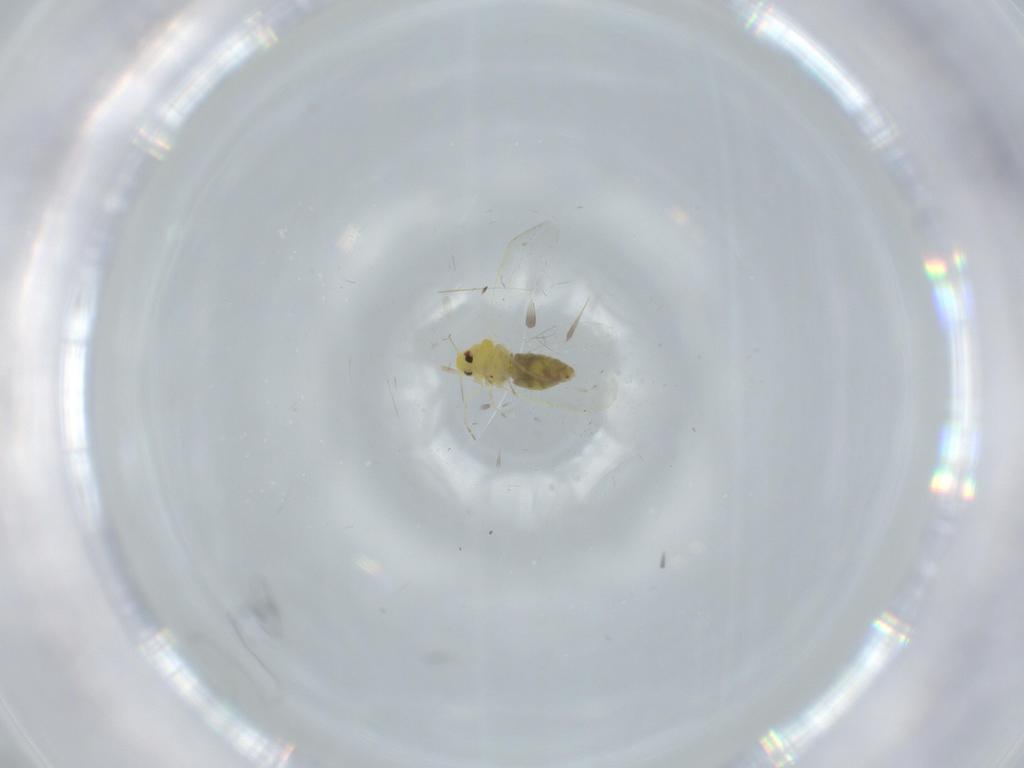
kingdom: Animalia
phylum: Arthropoda
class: Insecta
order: Hemiptera
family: Aleyrodidae
